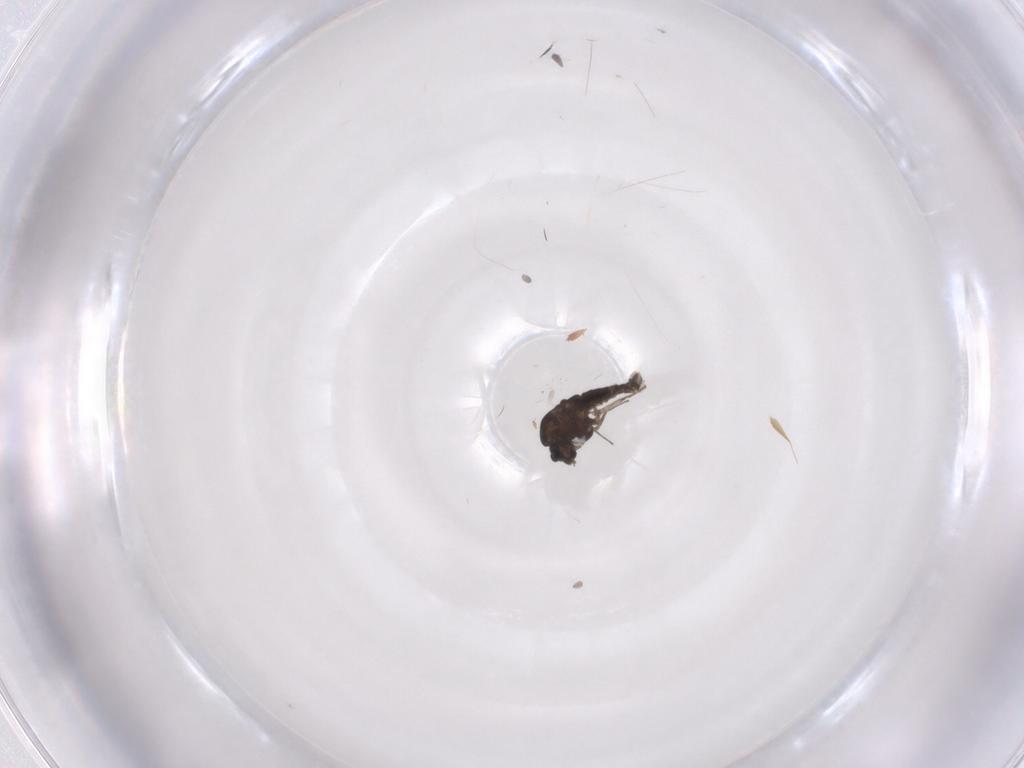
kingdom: Animalia
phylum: Arthropoda
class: Insecta
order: Diptera
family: Chironomidae
